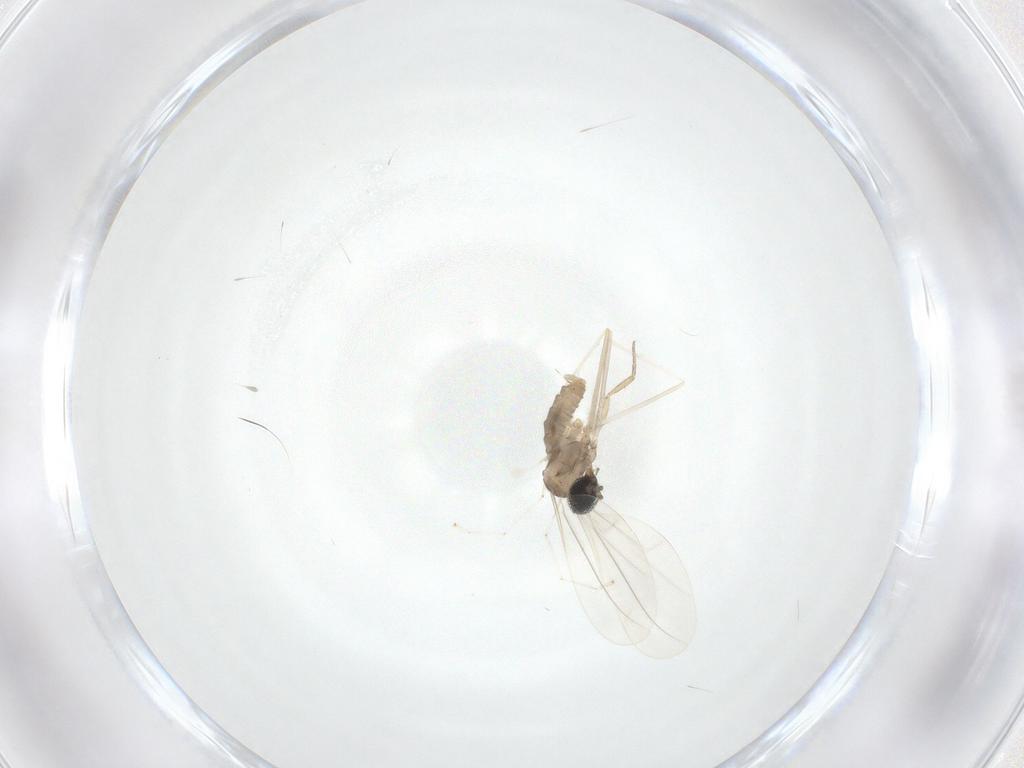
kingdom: Animalia
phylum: Arthropoda
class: Insecta
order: Diptera
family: Cecidomyiidae
